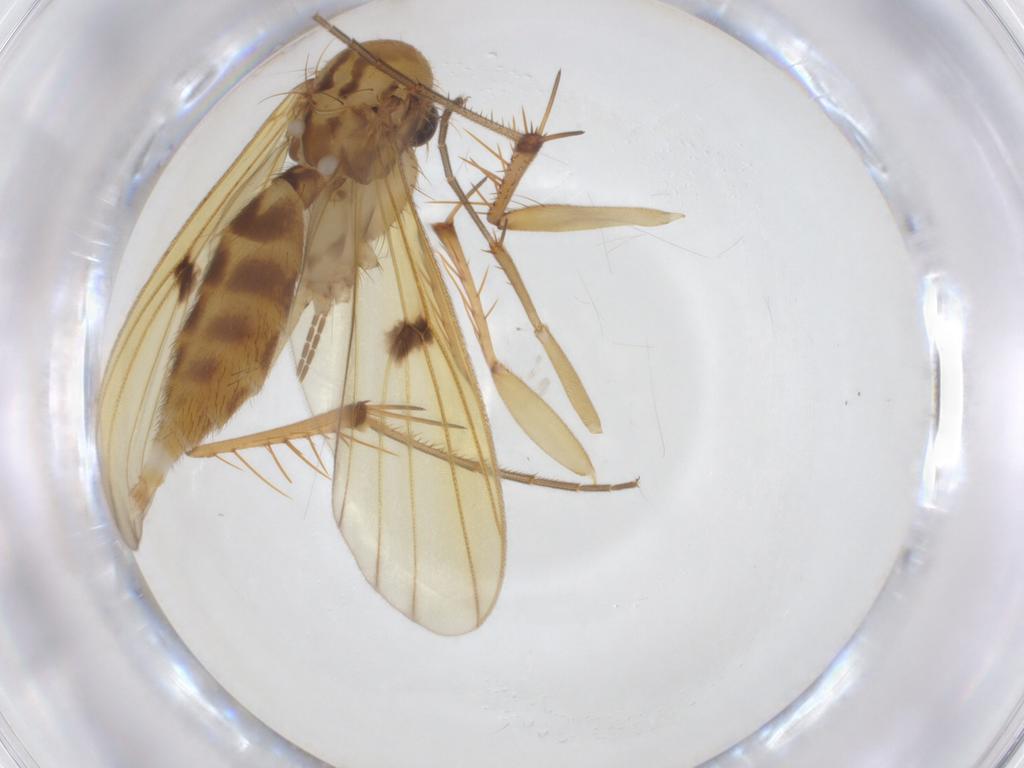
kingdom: Animalia
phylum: Arthropoda
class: Insecta
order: Diptera
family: Mycetophilidae
